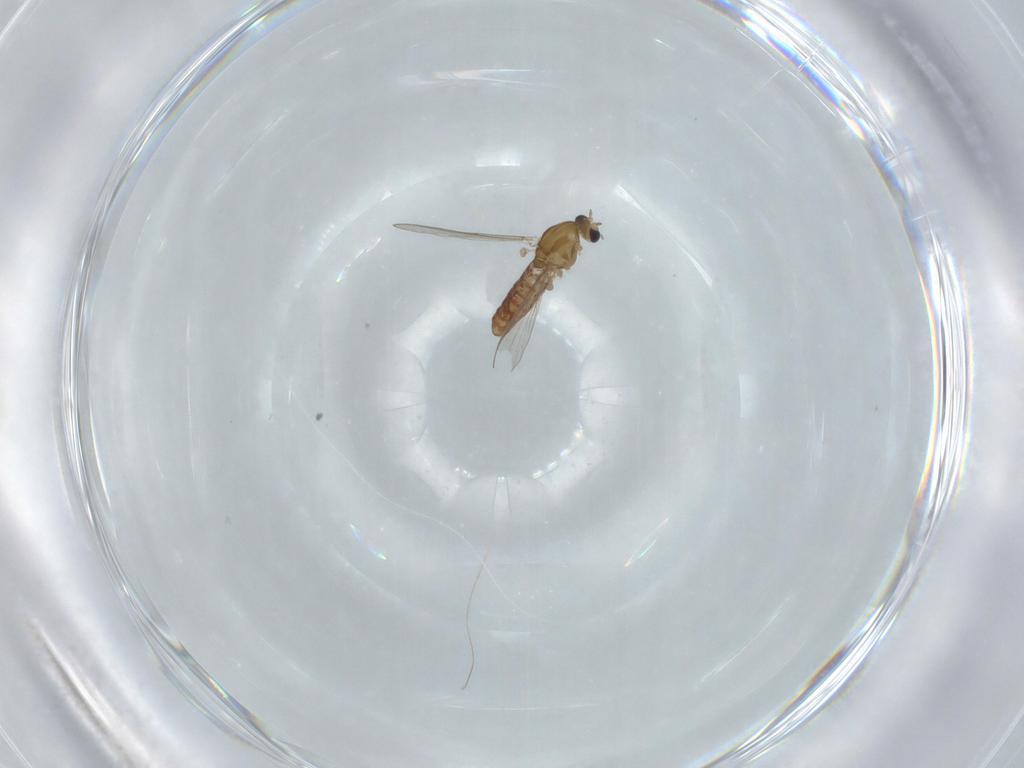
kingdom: Animalia
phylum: Arthropoda
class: Insecta
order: Diptera
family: Chironomidae
